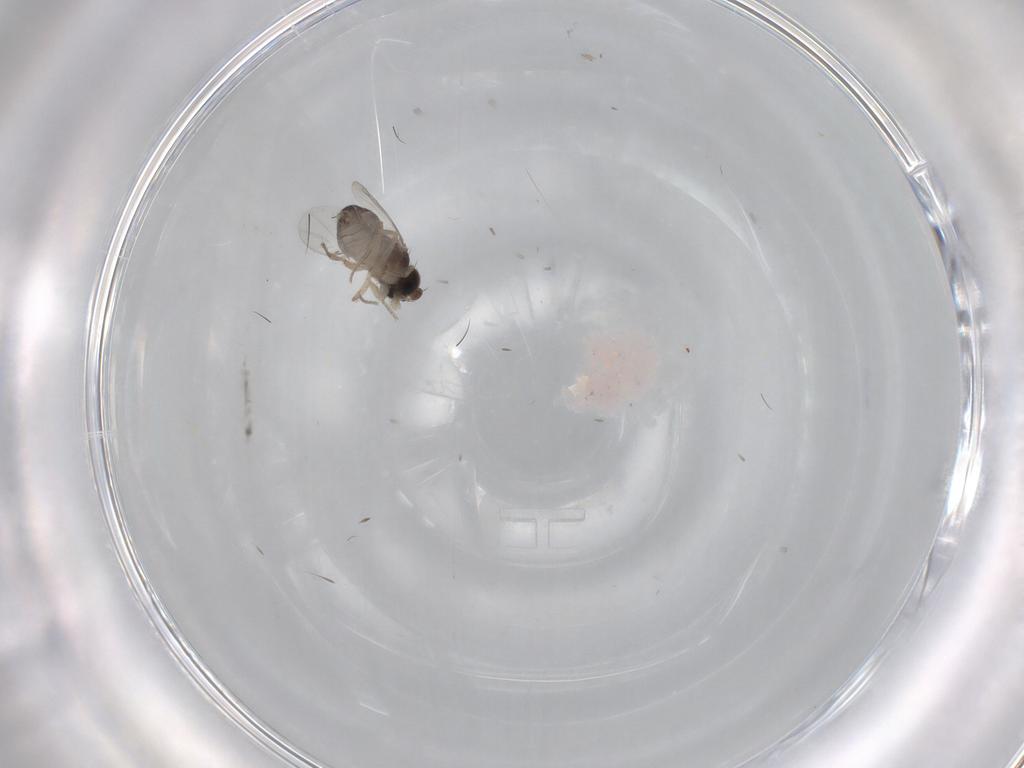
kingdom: Animalia
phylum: Arthropoda
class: Insecta
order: Diptera
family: Phoridae
